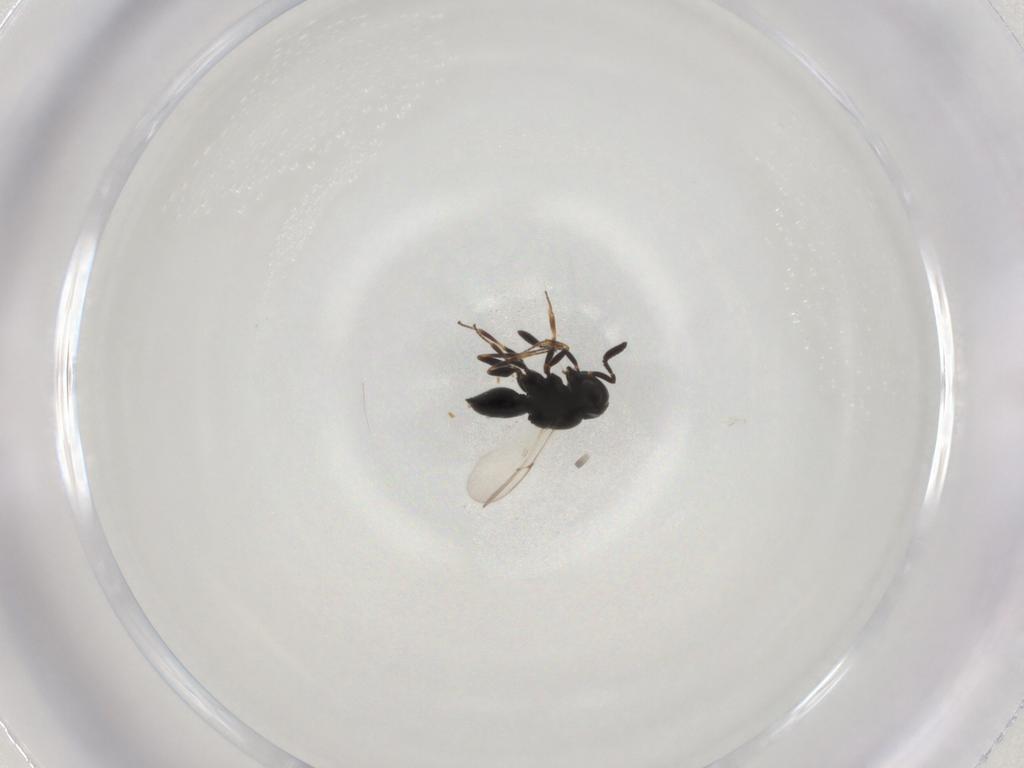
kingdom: Animalia
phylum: Arthropoda
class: Insecta
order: Hymenoptera
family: Scelionidae
